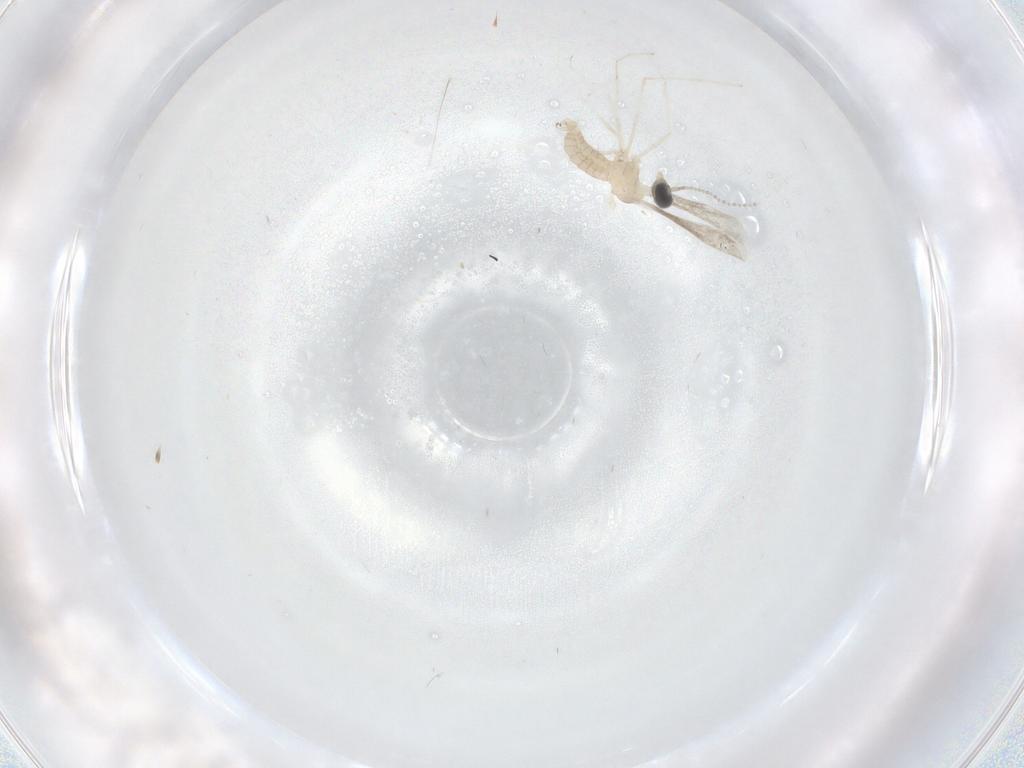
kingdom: Animalia
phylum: Arthropoda
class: Insecta
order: Diptera
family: Cecidomyiidae
